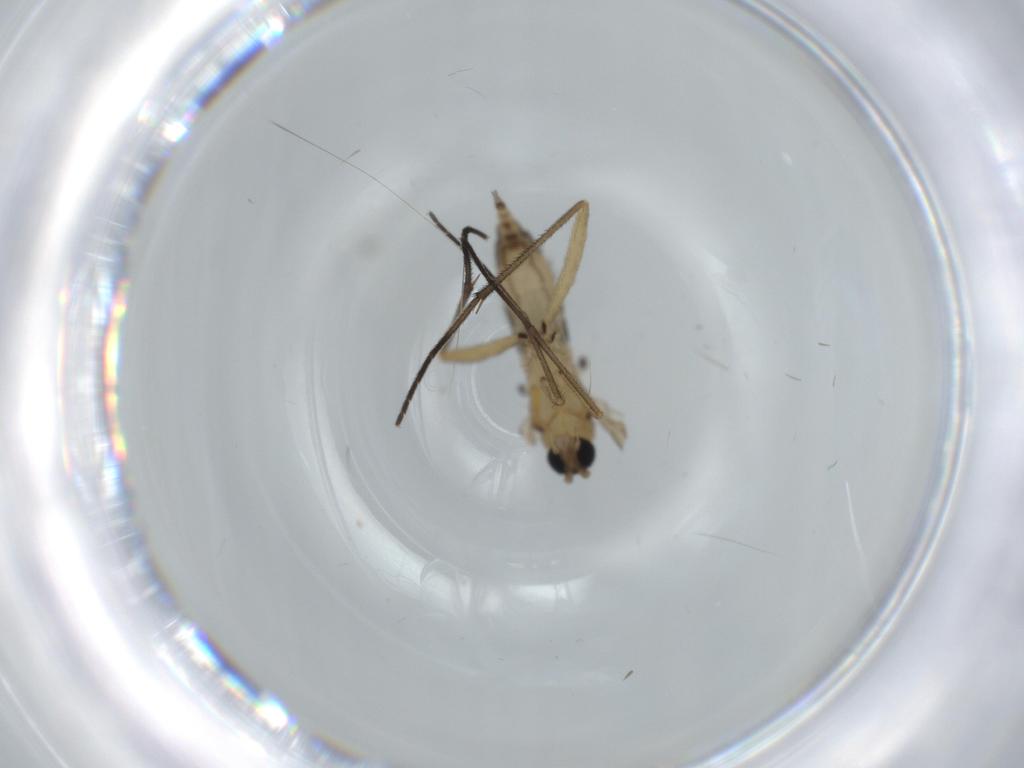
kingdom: Animalia
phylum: Arthropoda
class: Insecta
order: Diptera
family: Sciaridae
